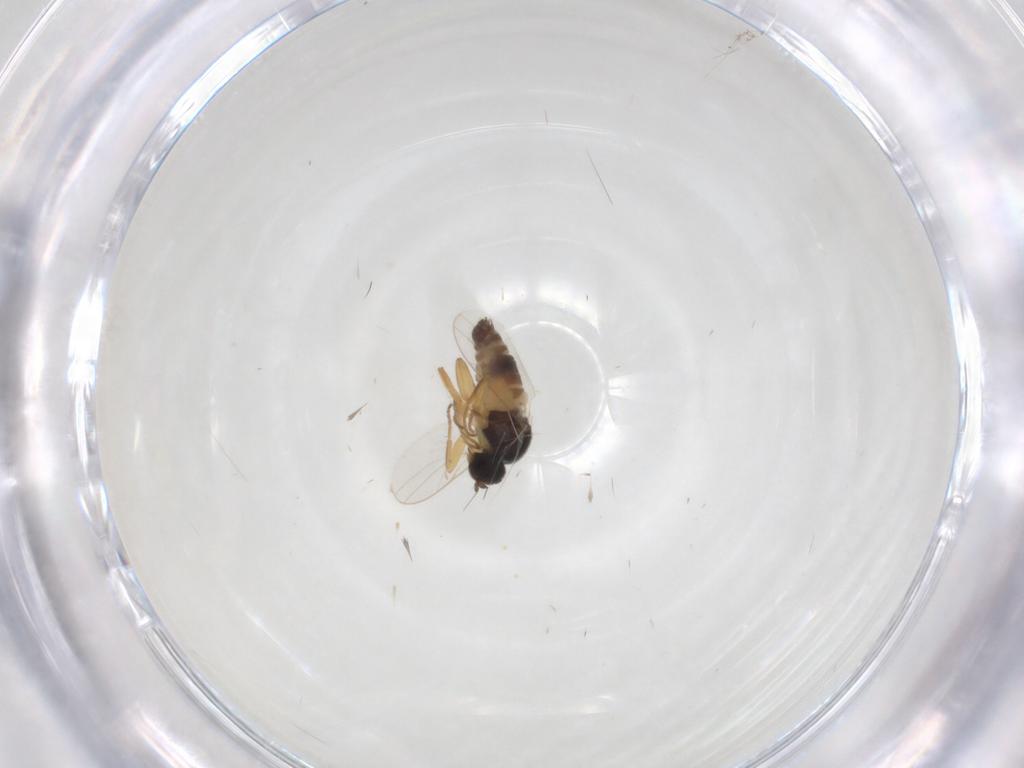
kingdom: Animalia
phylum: Arthropoda
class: Insecta
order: Diptera
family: Hybotidae
